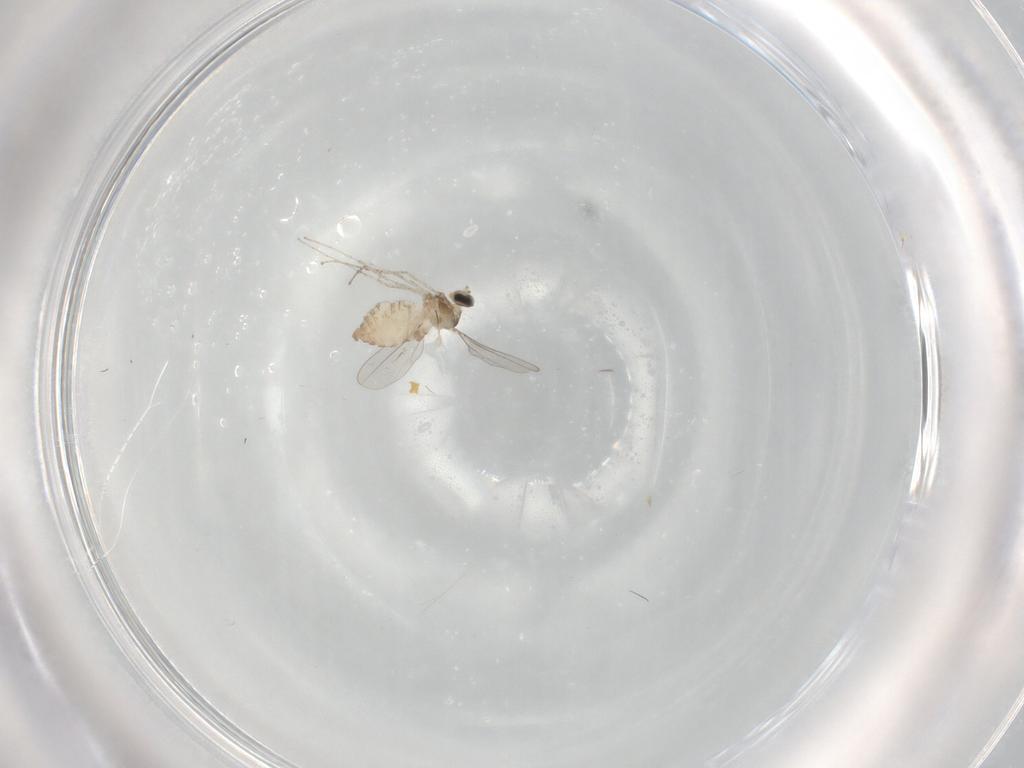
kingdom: Animalia
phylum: Arthropoda
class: Insecta
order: Diptera
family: Cecidomyiidae
